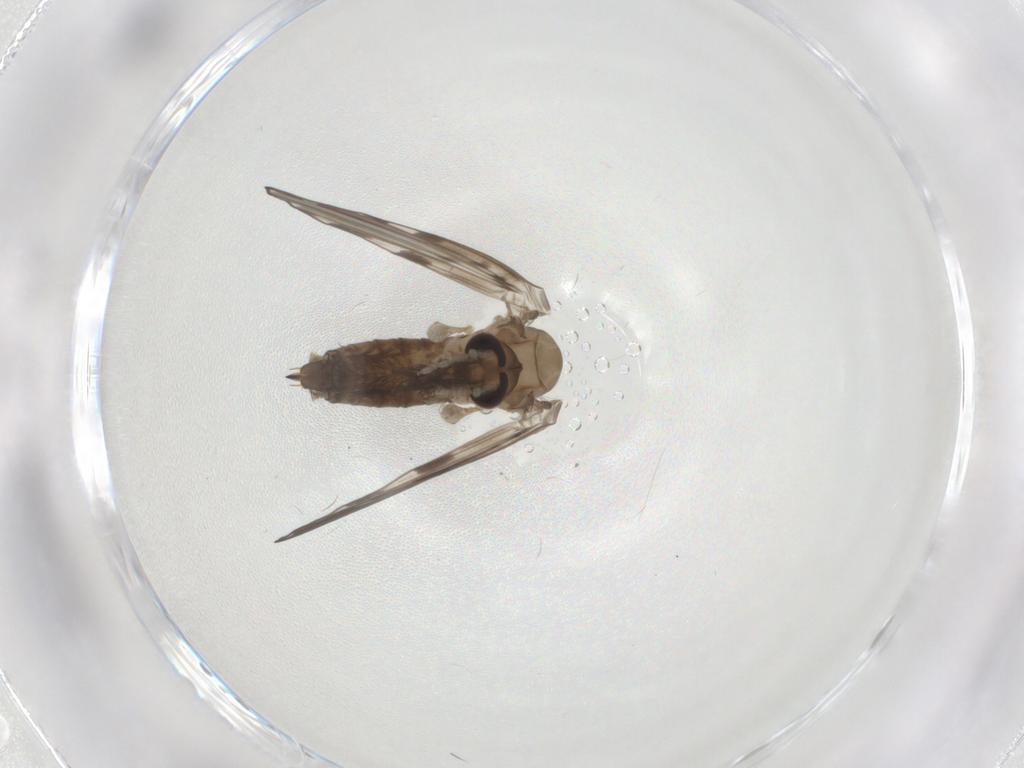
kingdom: Animalia
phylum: Arthropoda
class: Insecta
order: Diptera
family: Psychodidae
